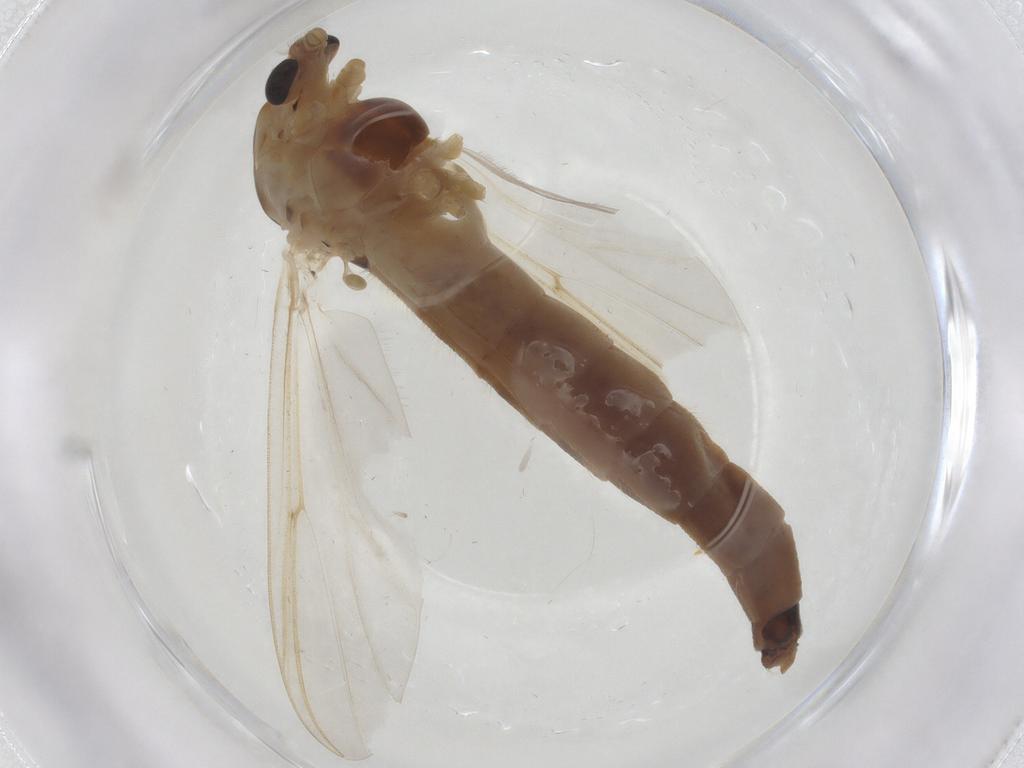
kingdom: Animalia
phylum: Arthropoda
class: Insecta
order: Diptera
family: Chironomidae
